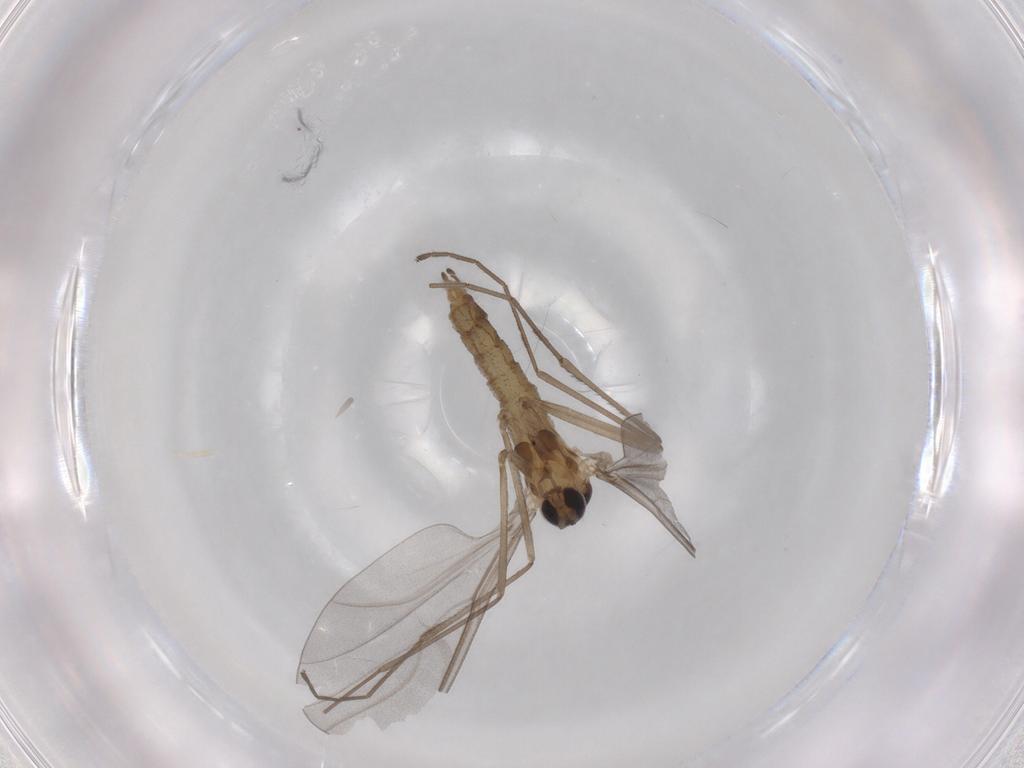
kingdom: Animalia
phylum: Arthropoda
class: Insecta
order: Diptera
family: Cecidomyiidae
